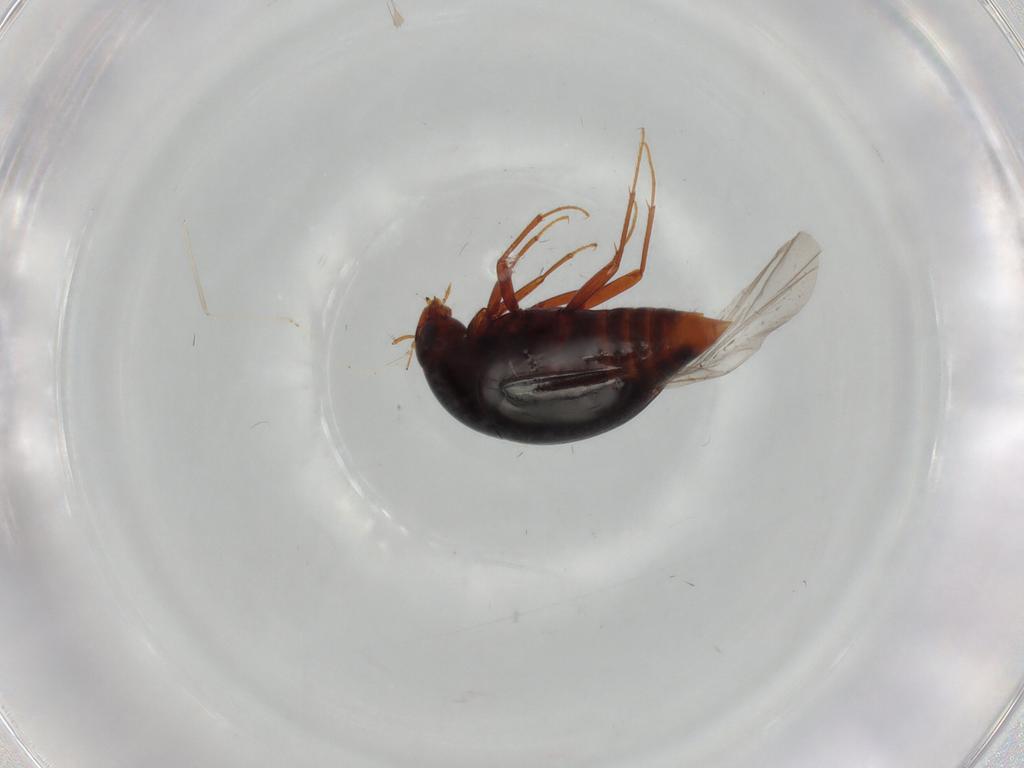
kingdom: Animalia
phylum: Arthropoda
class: Insecta
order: Coleoptera
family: Staphylinidae
